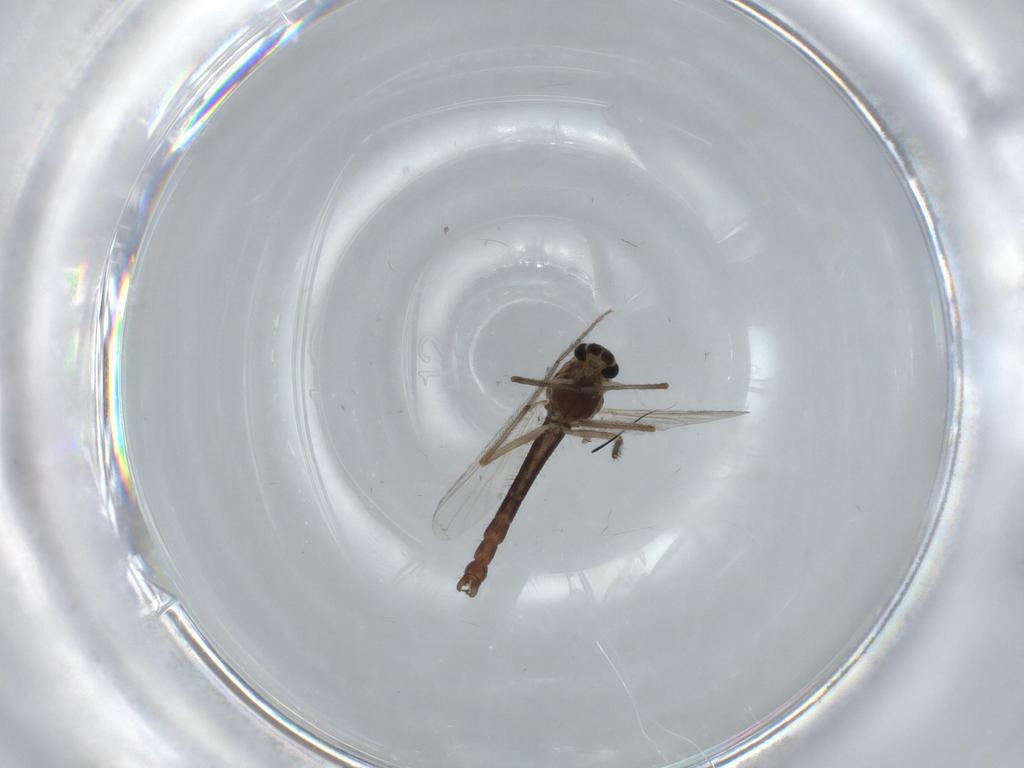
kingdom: Animalia
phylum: Arthropoda
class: Insecta
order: Diptera
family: Chironomidae
